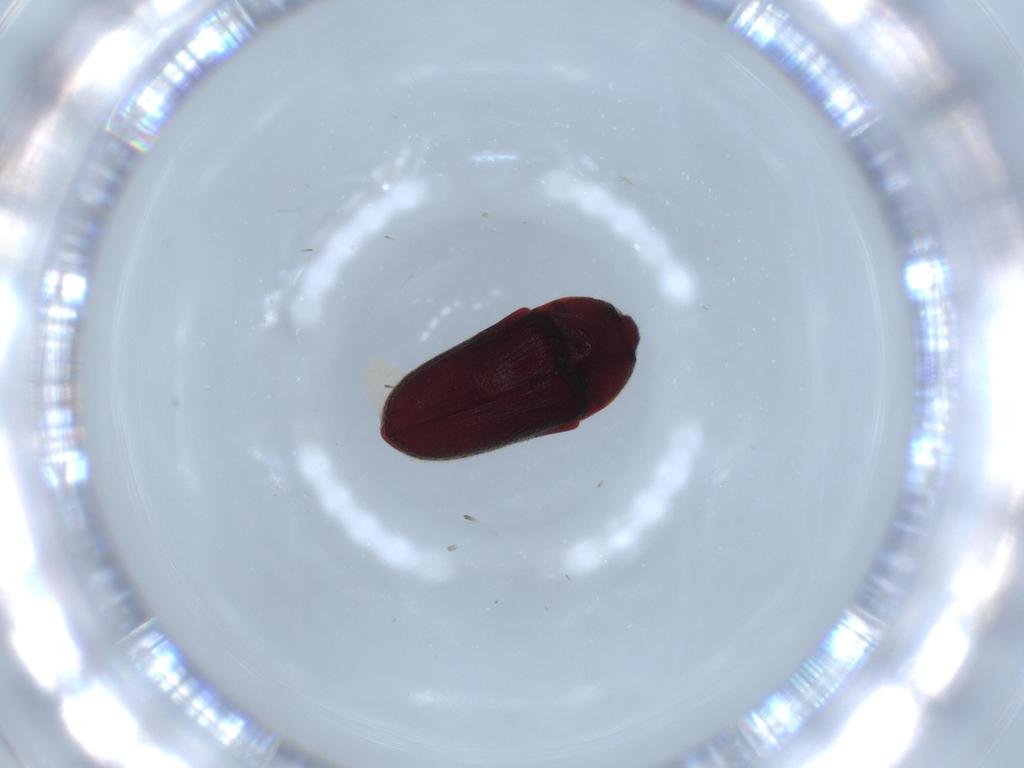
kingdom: Animalia
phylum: Arthropoda
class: Insecta
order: Coleoptera
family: Throscidae
